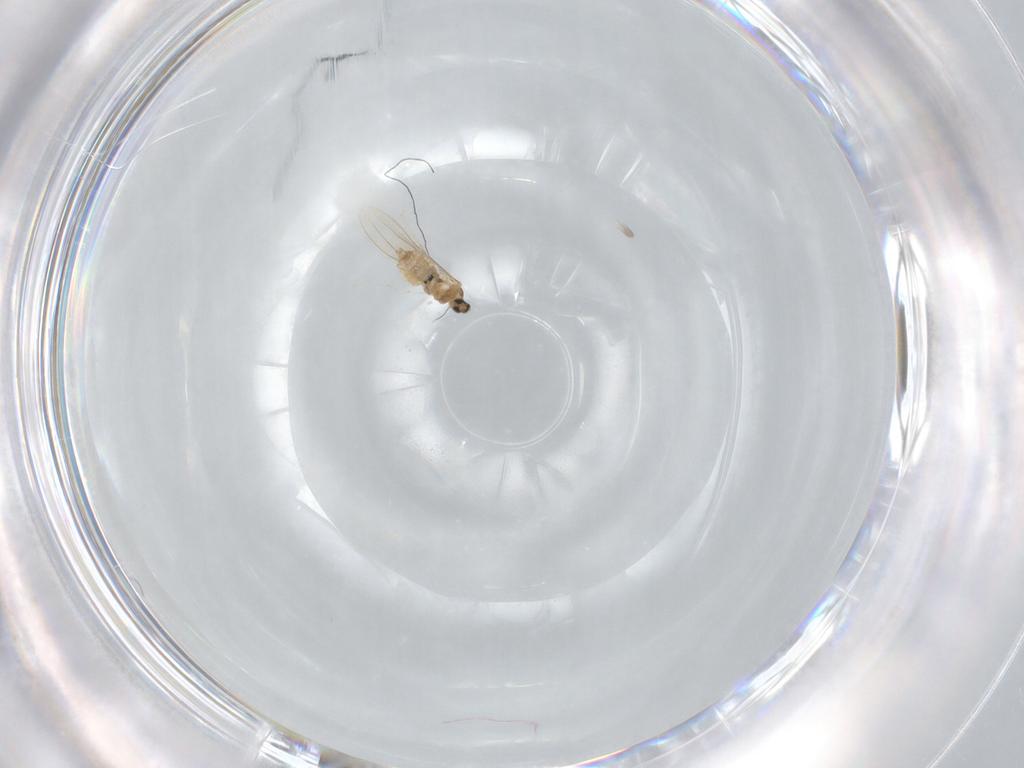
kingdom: Animalia
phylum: Arthropoda
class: Insecta
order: Diptera
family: Cecidomyiidae
